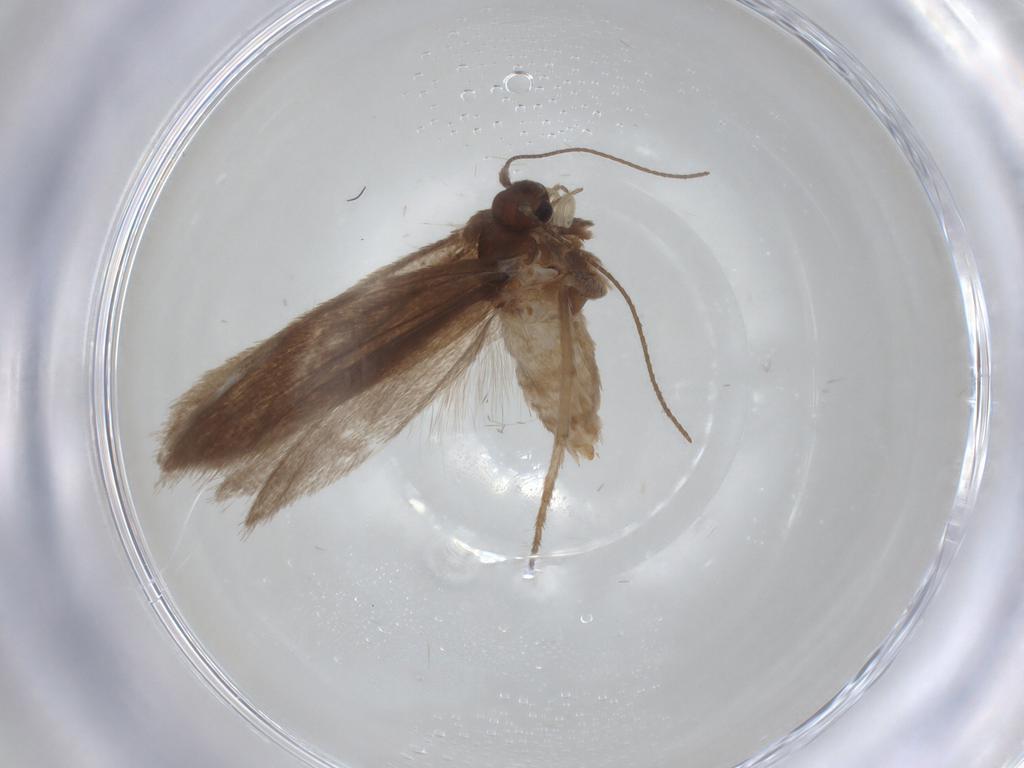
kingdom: Animalia
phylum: Arthropoda
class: Insecta
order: Lepidoptera
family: Limacodidae
